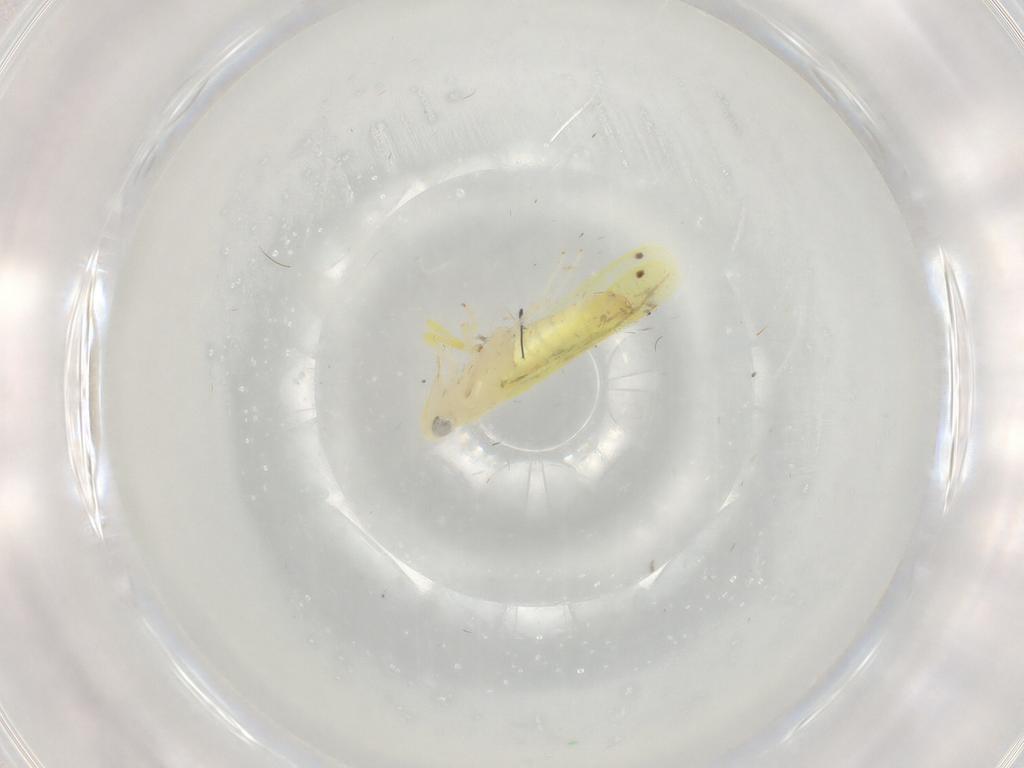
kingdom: Animalia
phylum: Arthropoda
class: Insecta
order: Hemiptera
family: Cicadellidae
